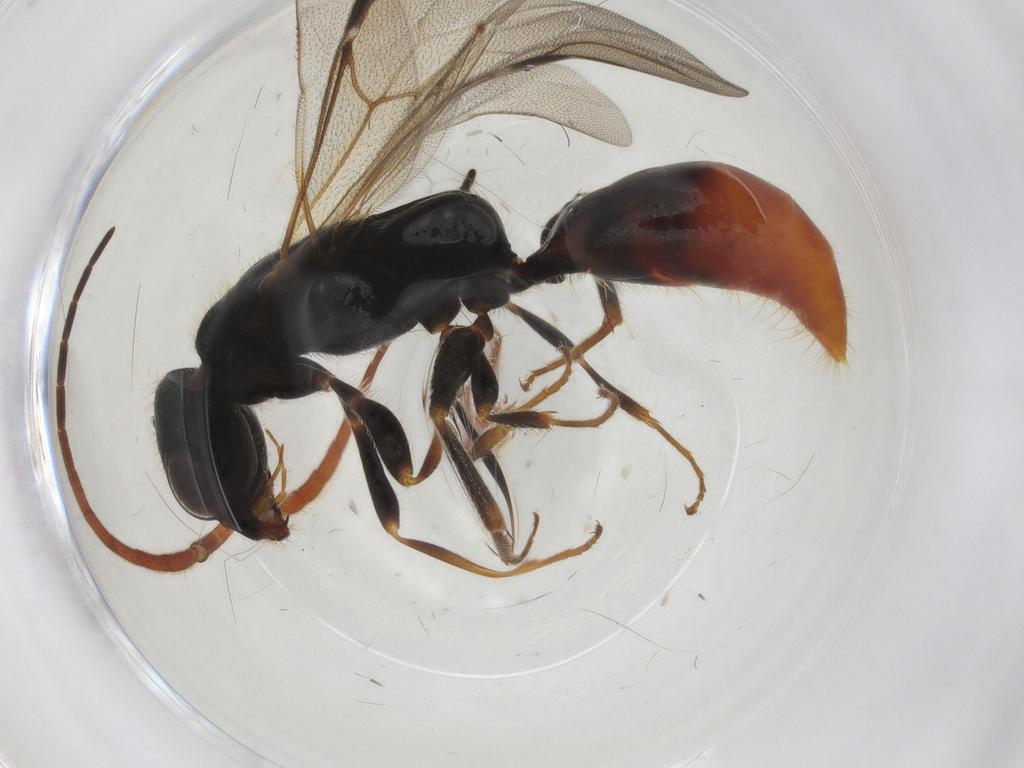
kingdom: Animalia
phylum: Arthropoda
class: Insecta
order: Hymenoptera
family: Bethylidae
